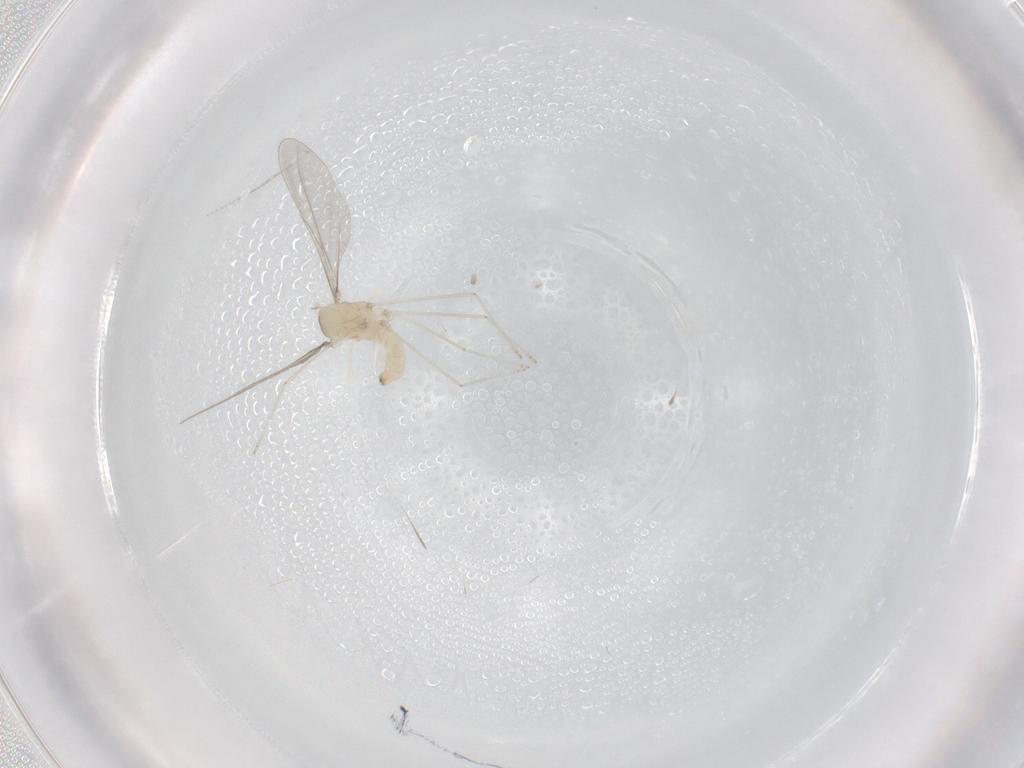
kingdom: Animalia
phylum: Arthropoda
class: Insecta
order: Diptera
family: Cecidomyiidae
